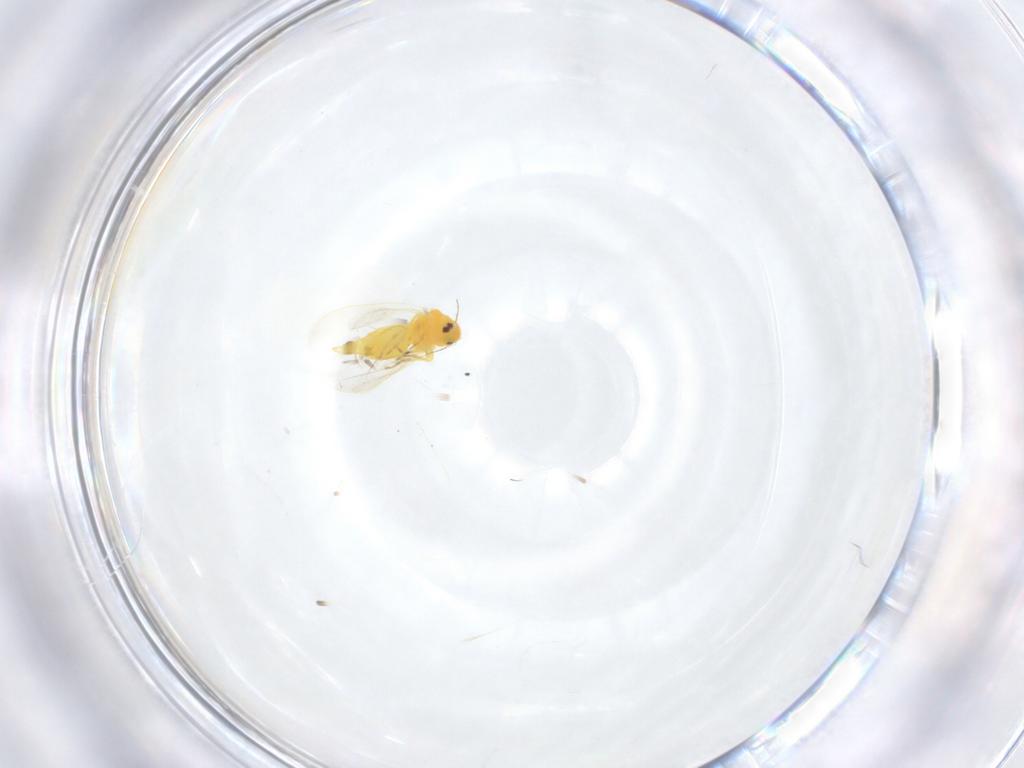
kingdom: Animalia
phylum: Arthropoda
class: Insecta
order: Hemiptera
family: Aleyrodidae
